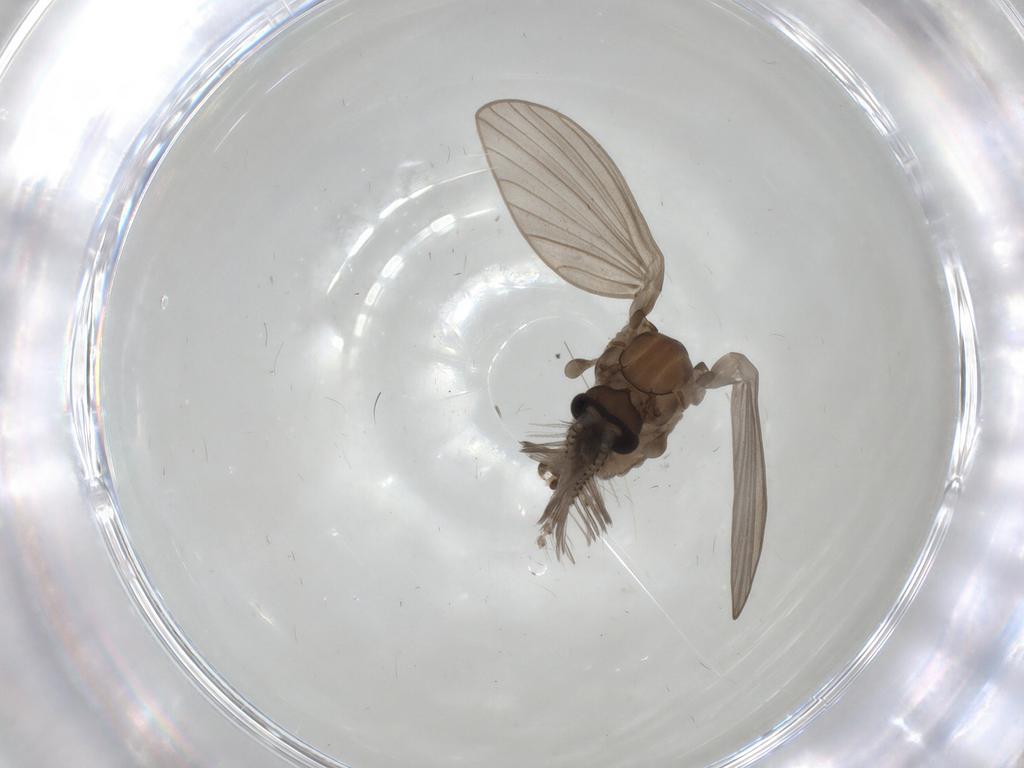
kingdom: Animalia
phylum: Arthropoda
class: Insecta
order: Diptera
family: Psychodidae
